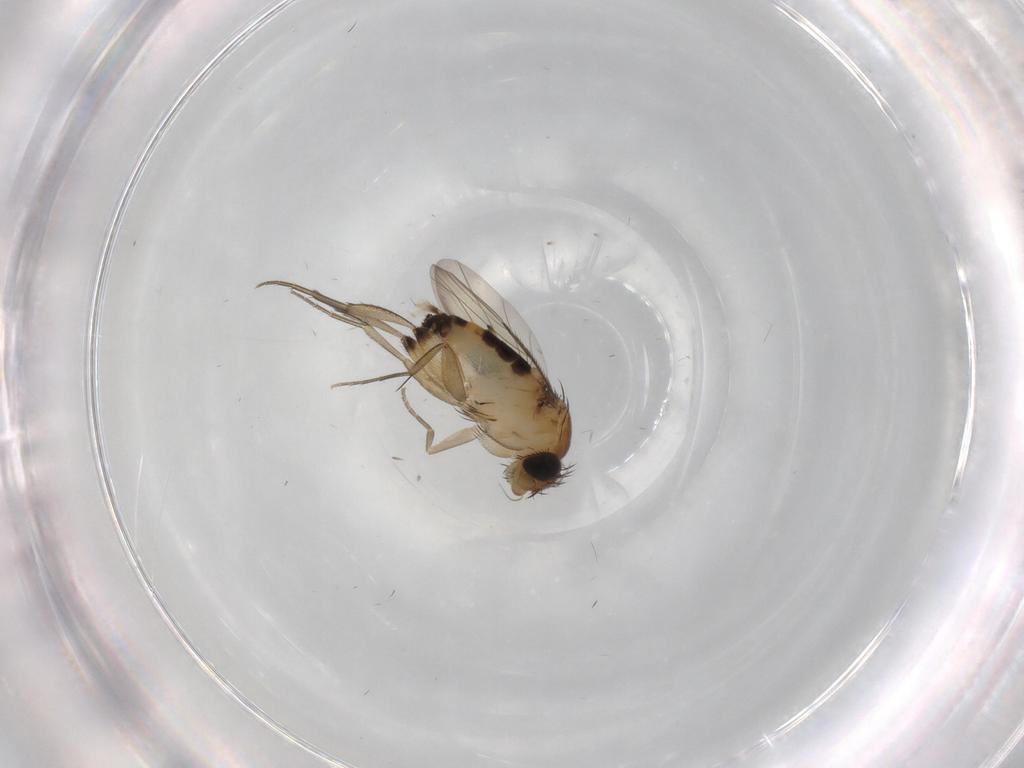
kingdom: Animalia
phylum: Arthropoda
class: Insecta
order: Diptera
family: Phoridae
